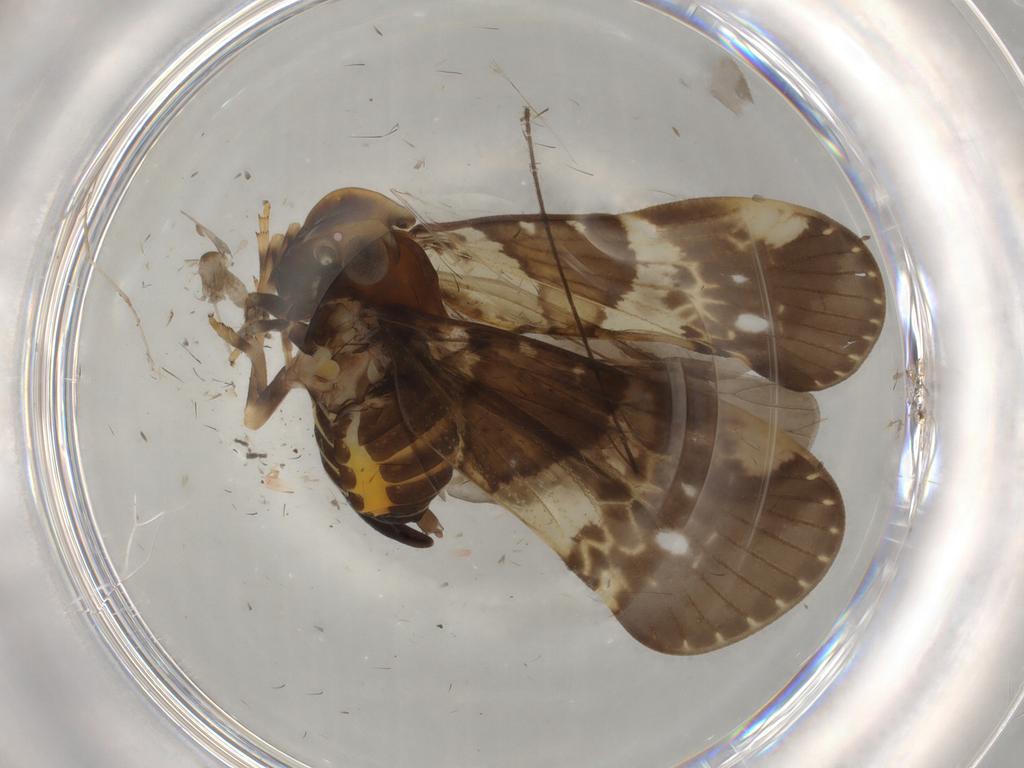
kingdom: Animalia
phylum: Arthropoda
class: Insecta
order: Hemiptera
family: Cixiidae
